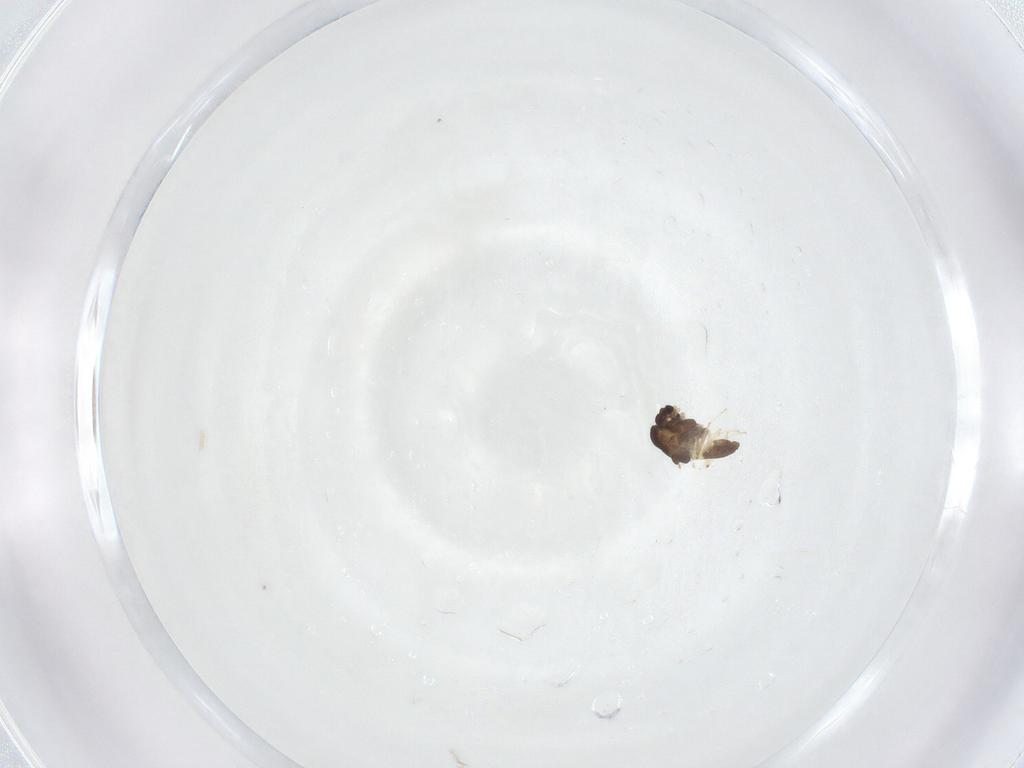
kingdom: Animalia
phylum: Arthropoda
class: Insecta
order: Diptera
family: Chironomidae
